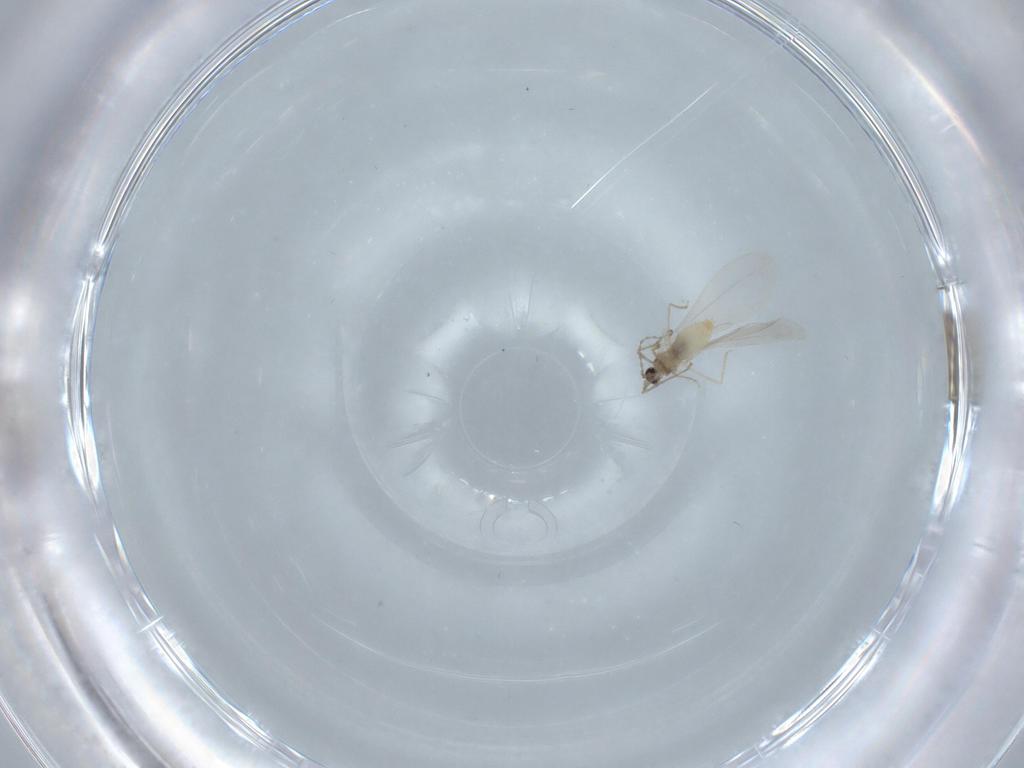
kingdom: Animalia
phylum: Arthropoda
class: Insecta
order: Diptera
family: Cecidomyiidae
